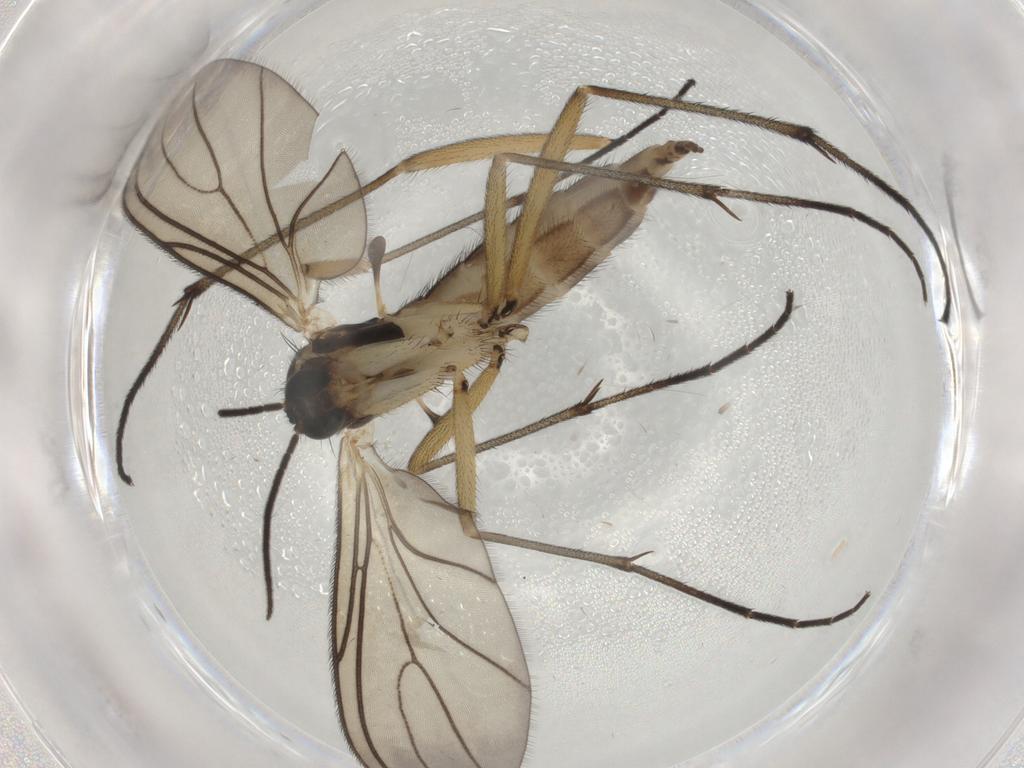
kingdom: Animalia
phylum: Arthropoda
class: Insecta
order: Diptera
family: Sciaridae
